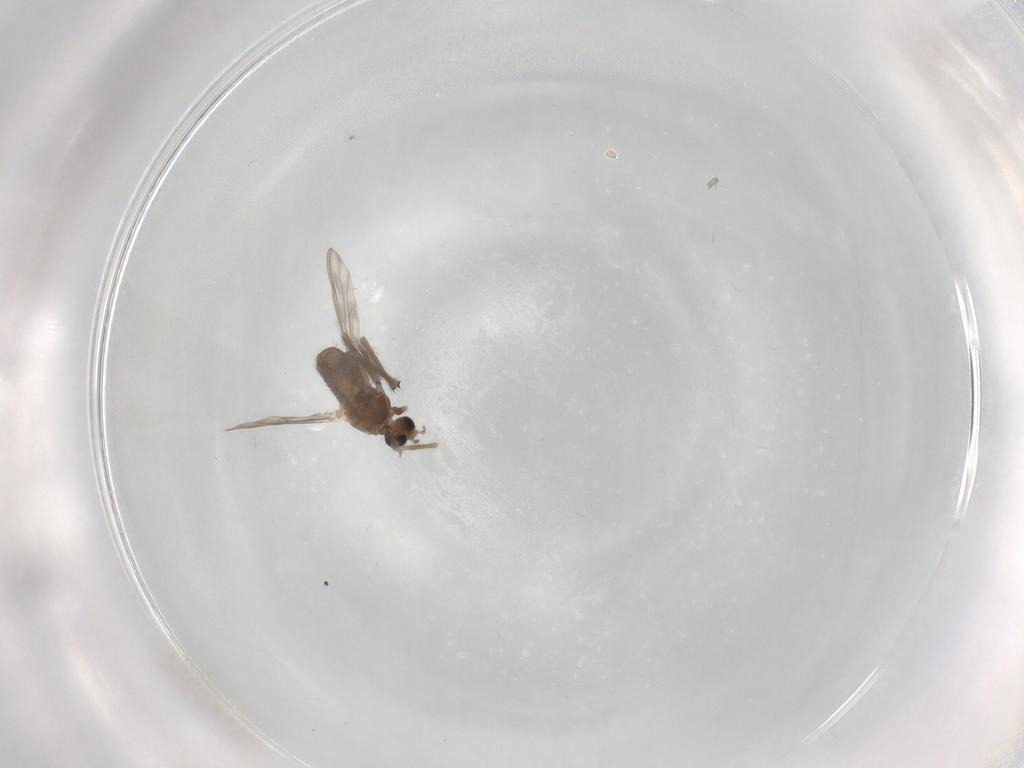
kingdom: Animalia
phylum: Arthropoda
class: Insecta
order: Diptera
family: Chironomidae
